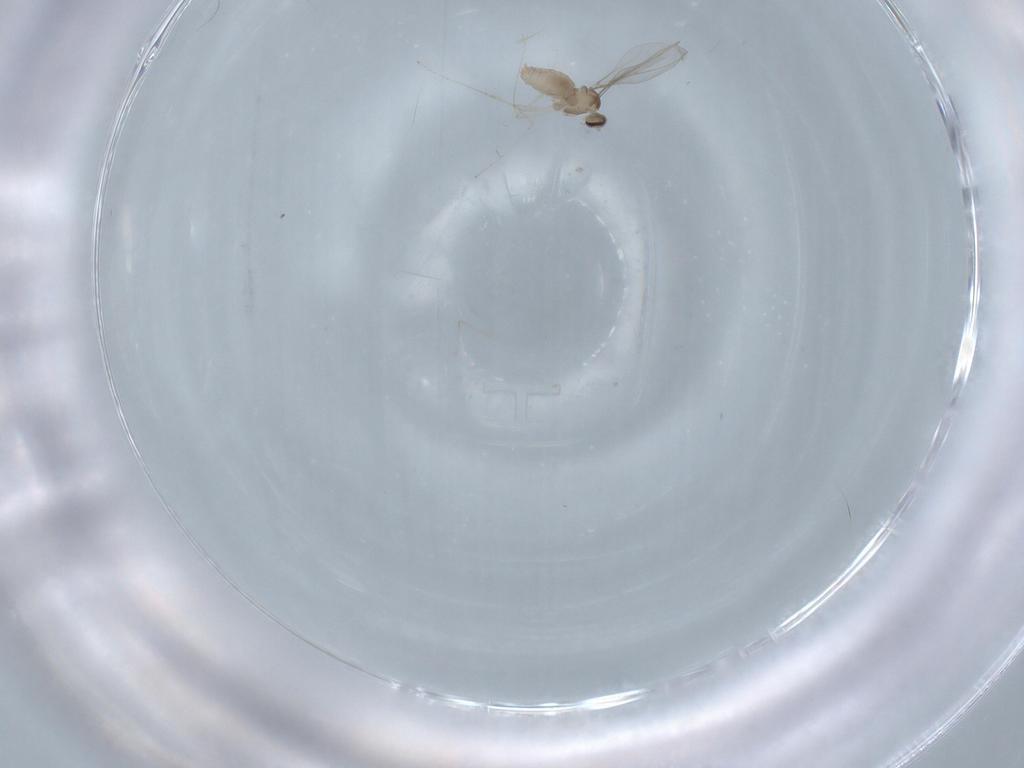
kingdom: Animalia
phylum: Arthropoda
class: Insecta
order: Diptera
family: Cecidomyiidae
